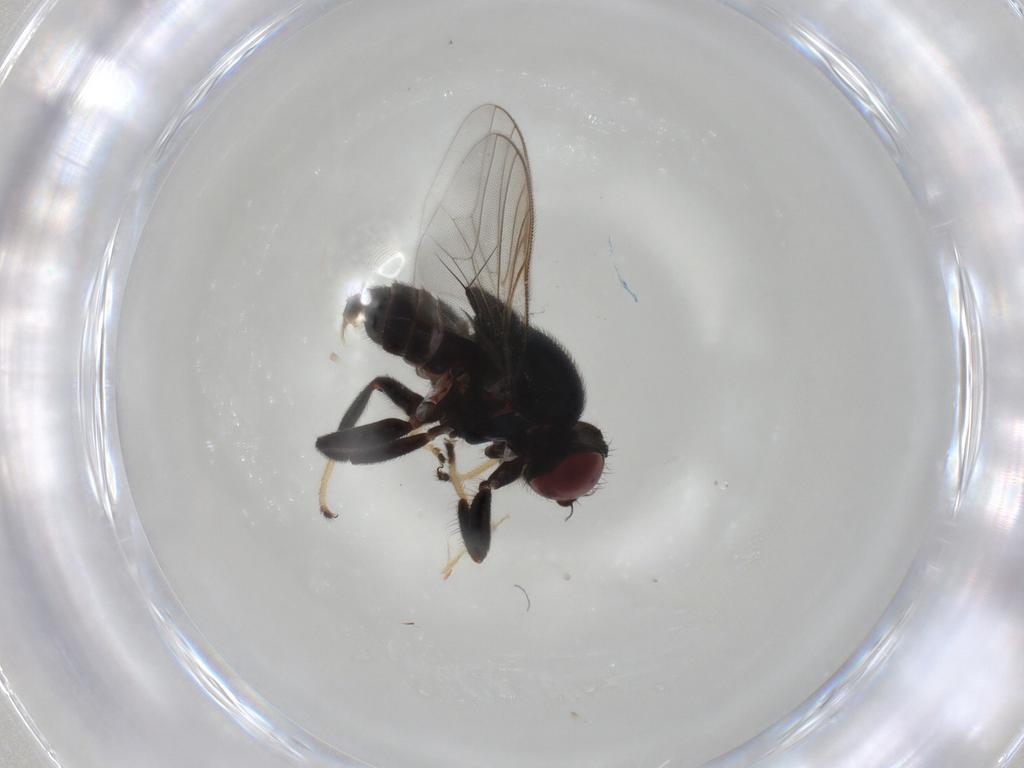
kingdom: Animalia
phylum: Arthropoda
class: Insecta
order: Diptera
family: Chloropidae
